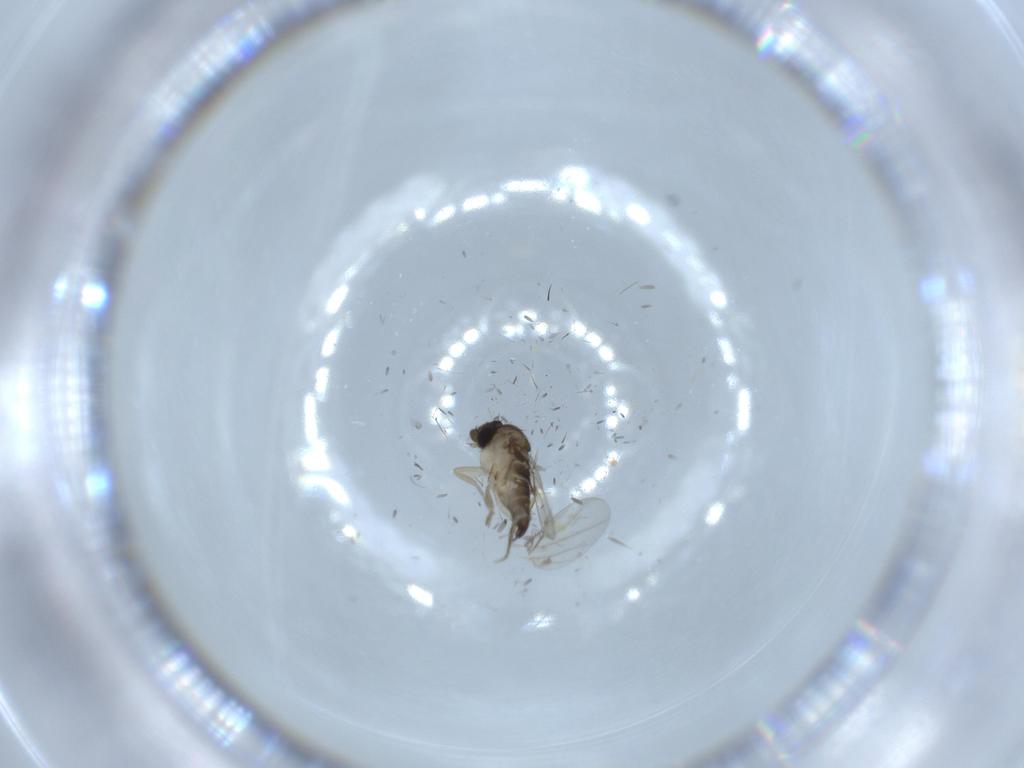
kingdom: Animalia
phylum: Arthropoda
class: Insecta
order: Diptera
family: Phoridae
